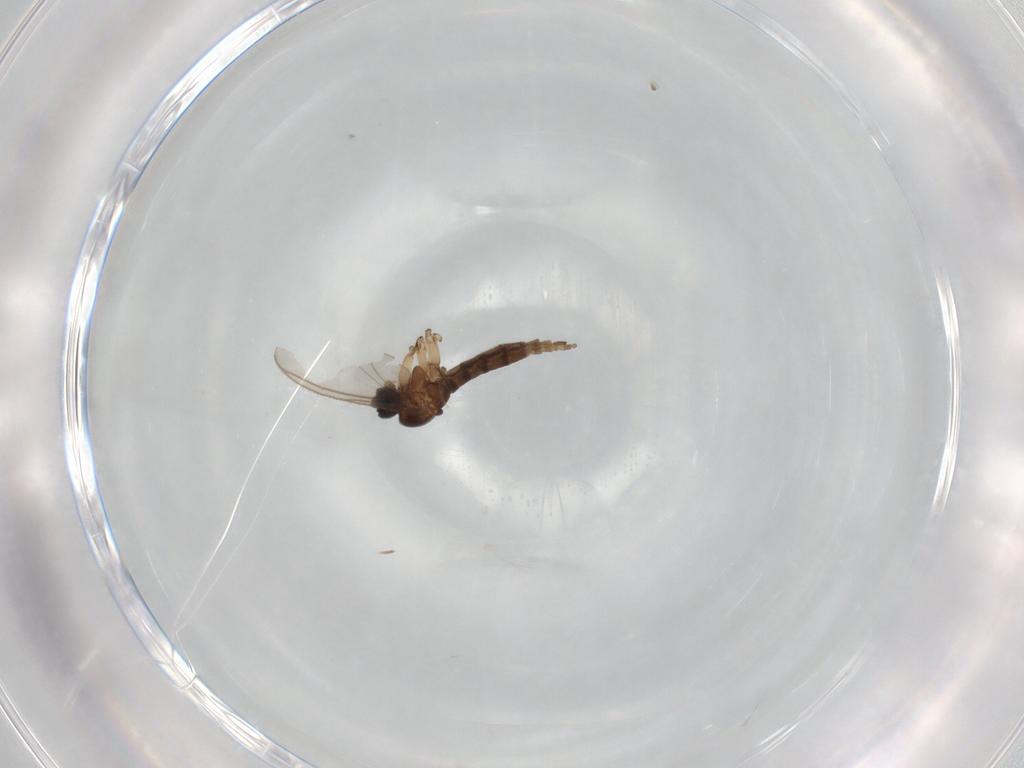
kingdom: Animalia
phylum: Arthropoda
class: Insecta
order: Diptera
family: Sciaridae
